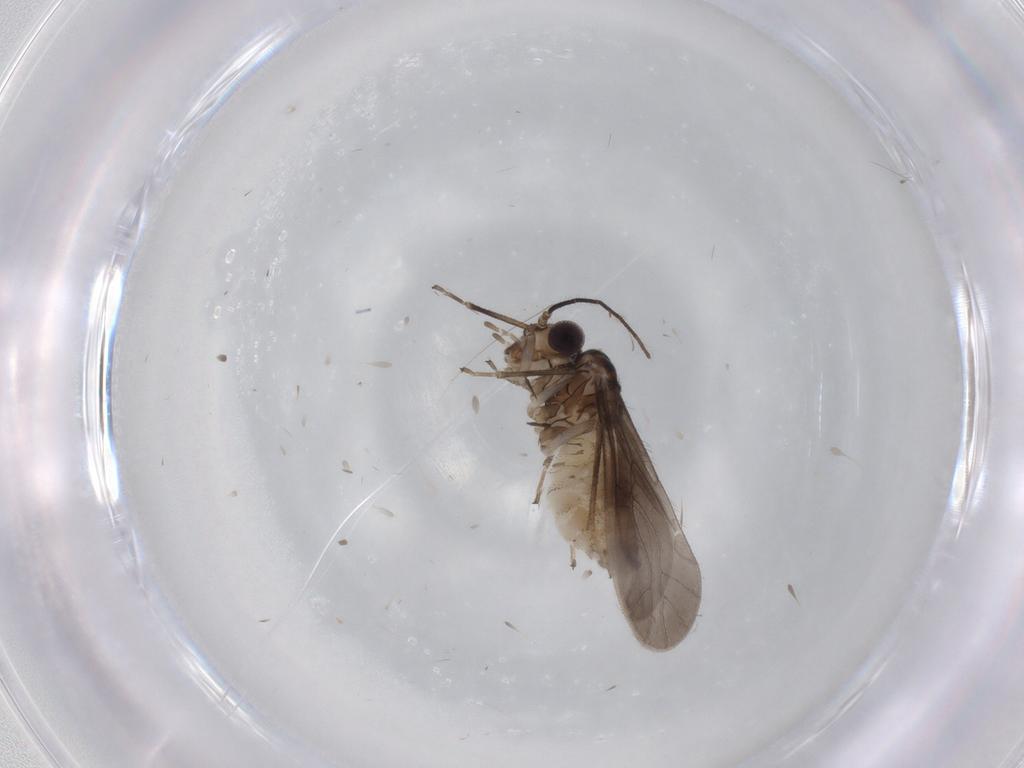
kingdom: Animalia
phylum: Arthropoda
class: Insecta
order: Psocodea
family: Caeciliusidae
